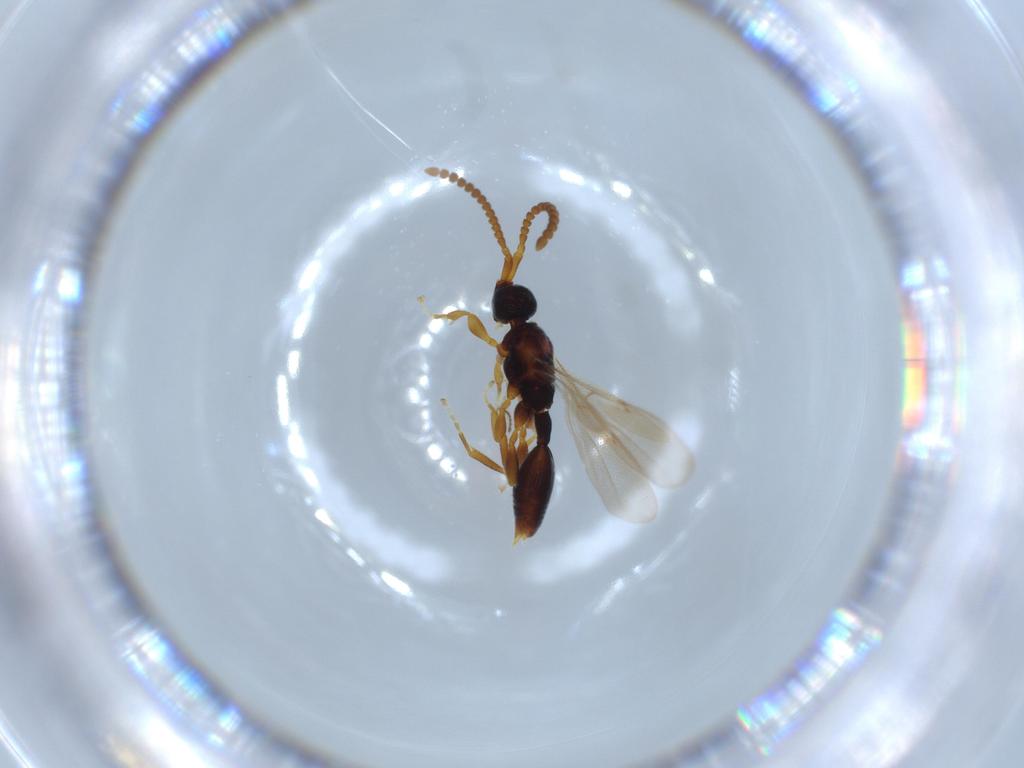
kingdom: Animalia
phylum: Arthropoda
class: Insecta
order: Hymenoptera
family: Diapriidae
